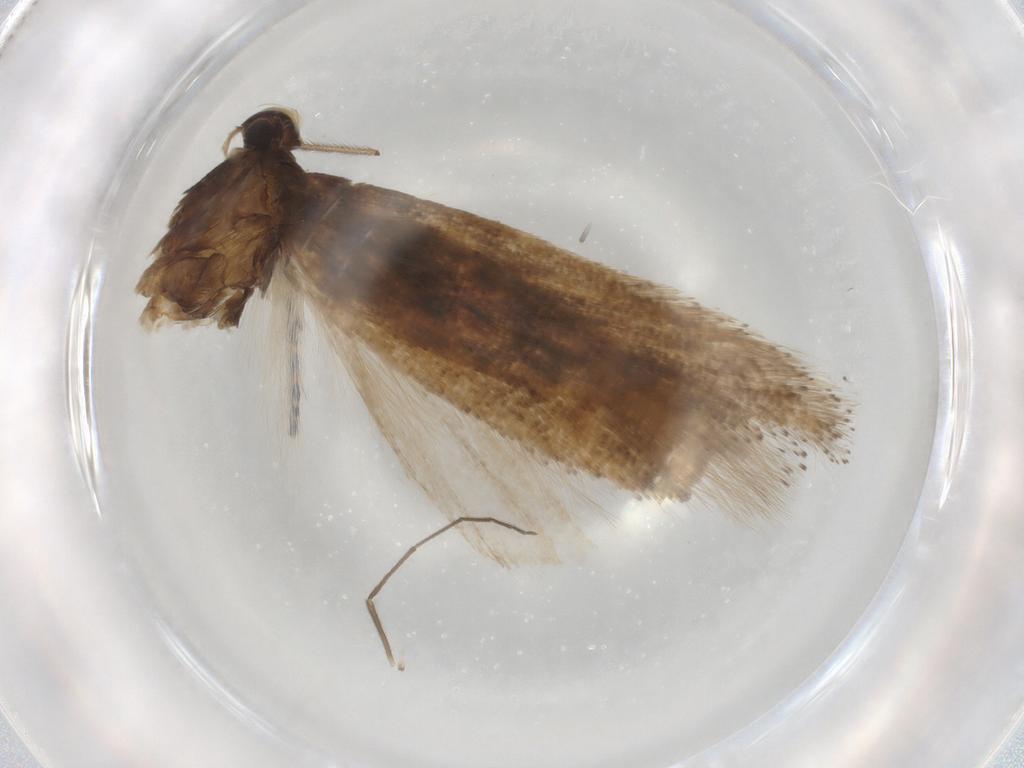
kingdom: Animalia
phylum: Arthropoda
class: Insecta
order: Lepidoptera
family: Gelechiidae
